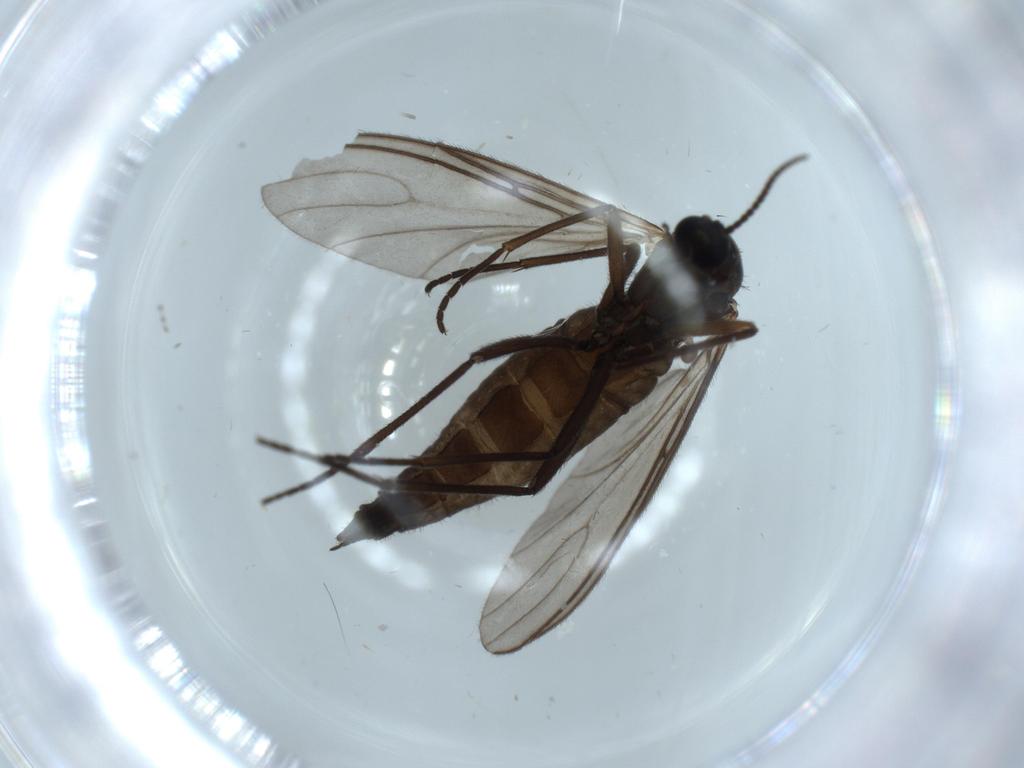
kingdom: Animalia
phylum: Arthropoda
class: Insecta
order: Diptera
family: Sciaridae
